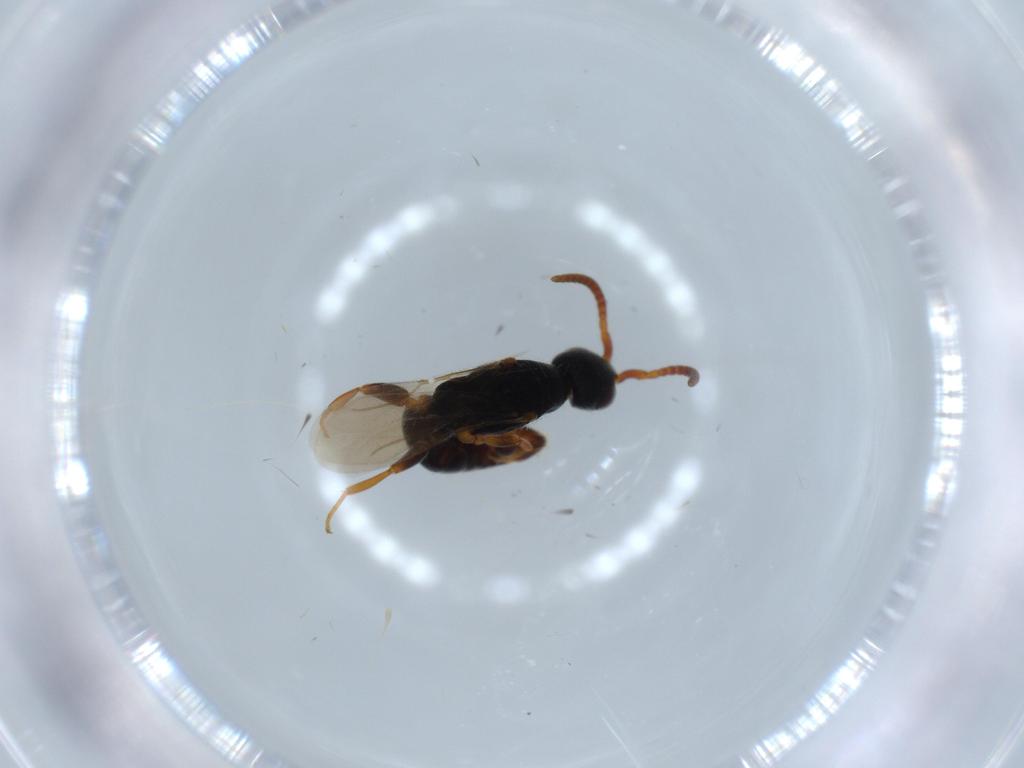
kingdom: Animalia
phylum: Arthropoda
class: Insecta
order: Hymenoptera
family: Bethylidae
